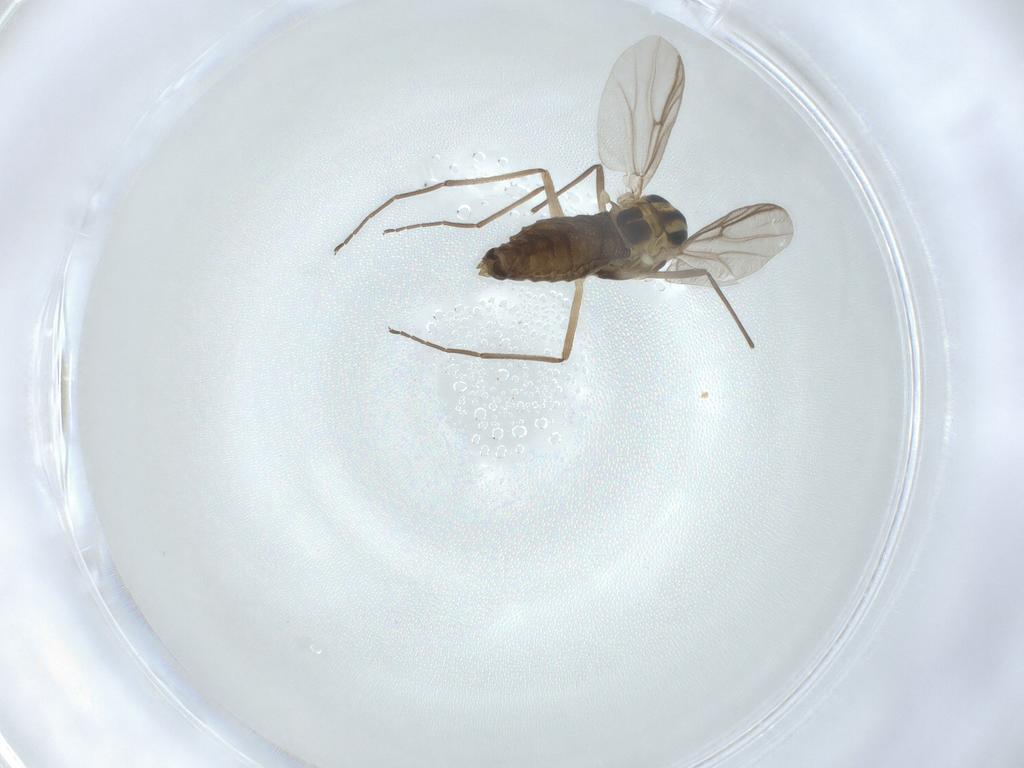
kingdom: Animalia
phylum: Arthropoda
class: Insecta
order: Diptera
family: Chironomidae
